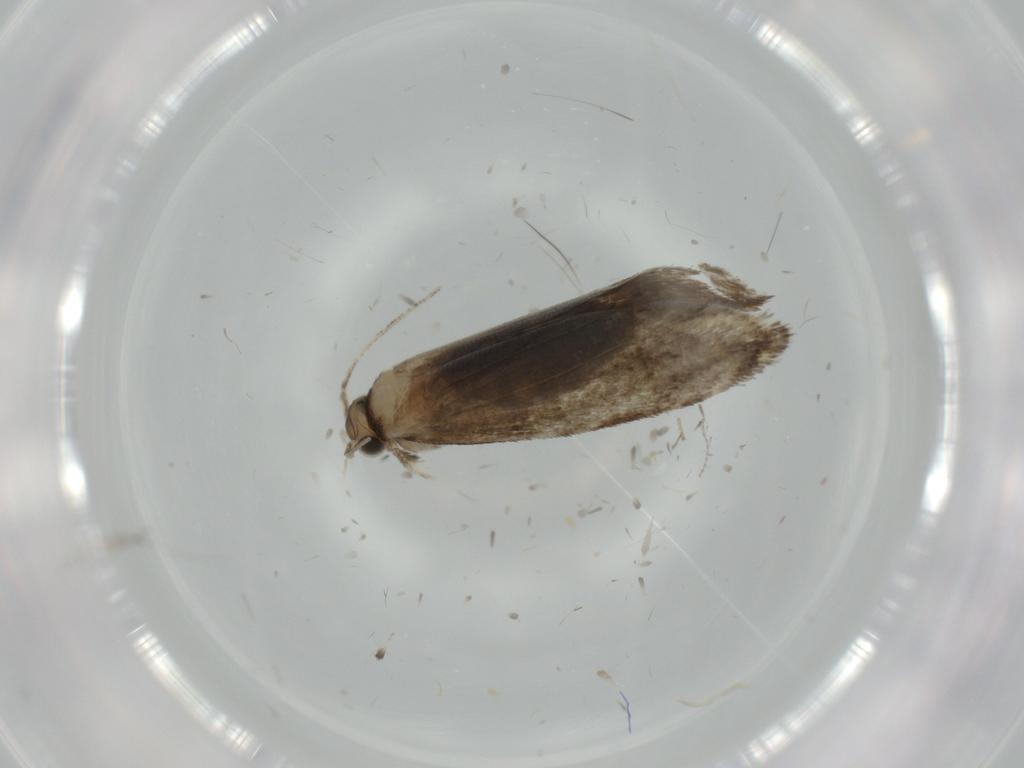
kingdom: Animalia
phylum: Arthropoda
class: Insecta
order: Lepidoptera
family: Tineidae
